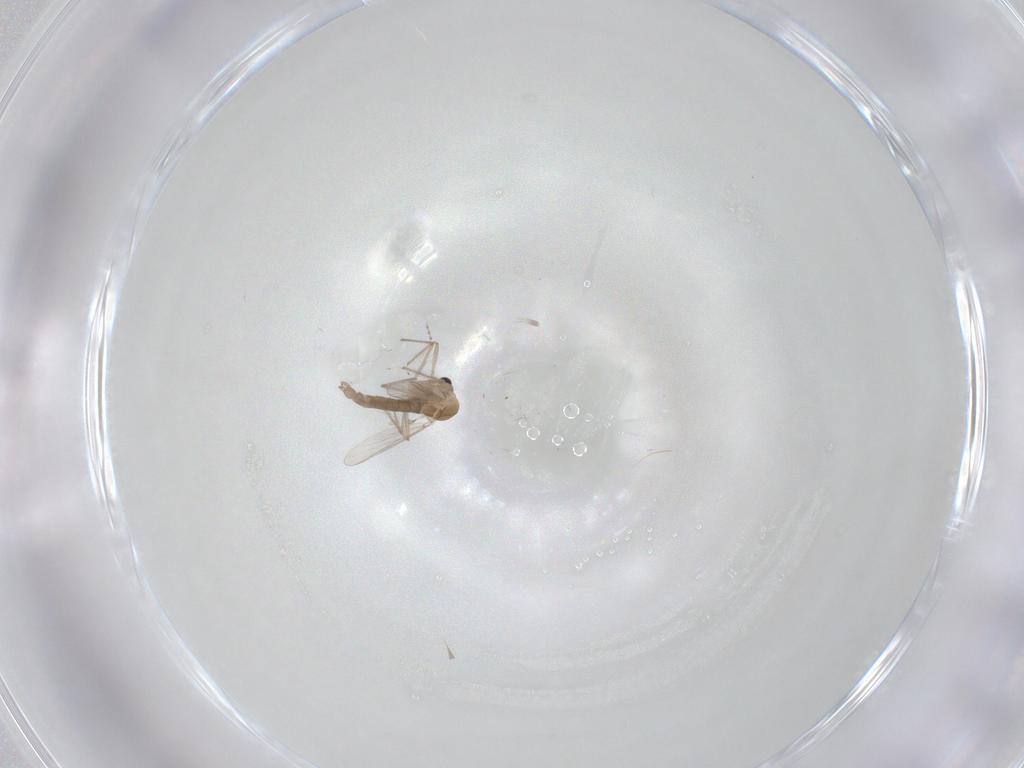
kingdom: Animalia
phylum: Arthropoda
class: Insecta
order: Diptera
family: Chironomidae
